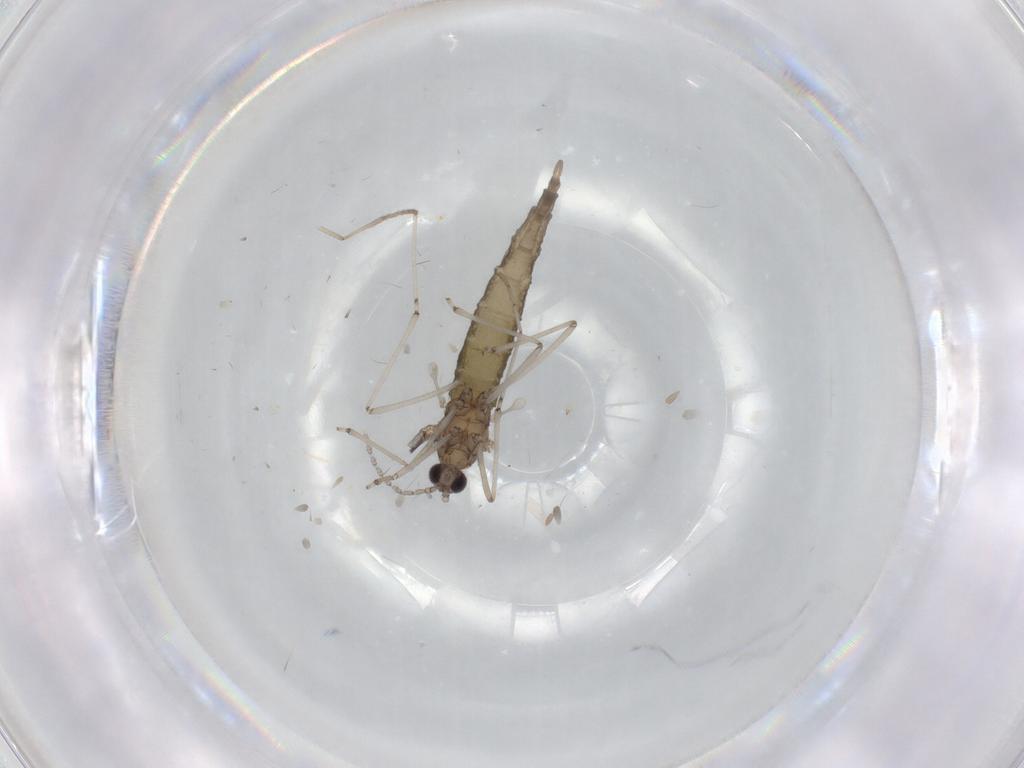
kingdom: Animalia
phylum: Arthropoda
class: Insecta
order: Diptera
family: Cecidomyiidae
